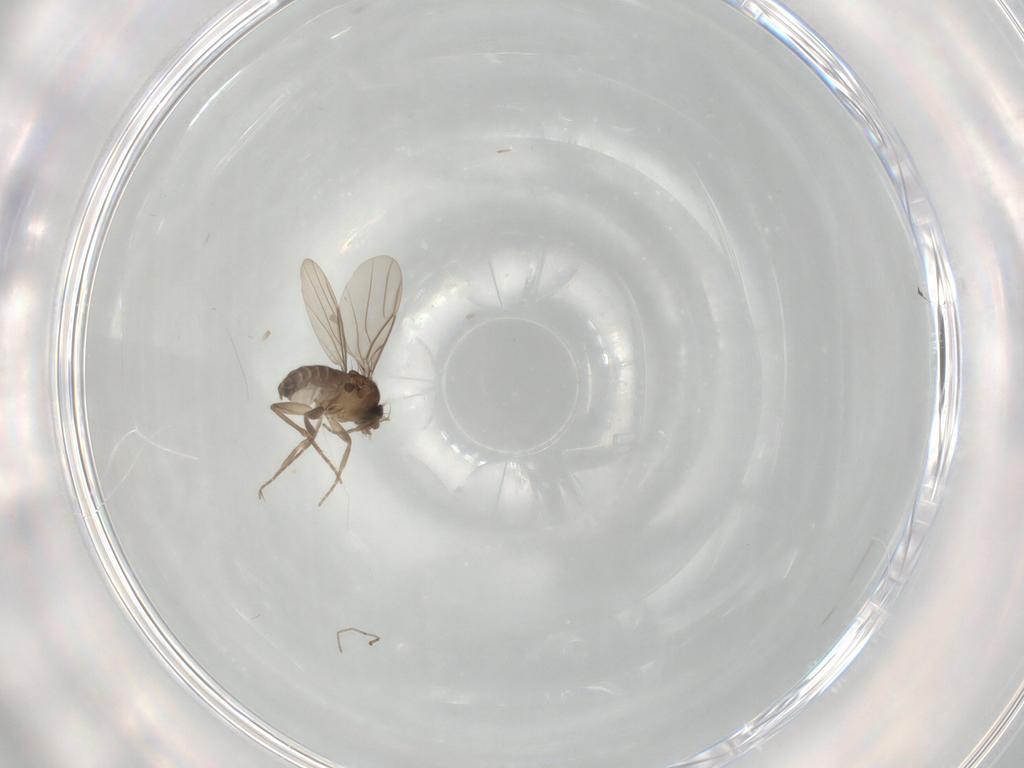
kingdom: Animalia
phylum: Arthropoda
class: Insecta
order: Diptera
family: Phoridae
